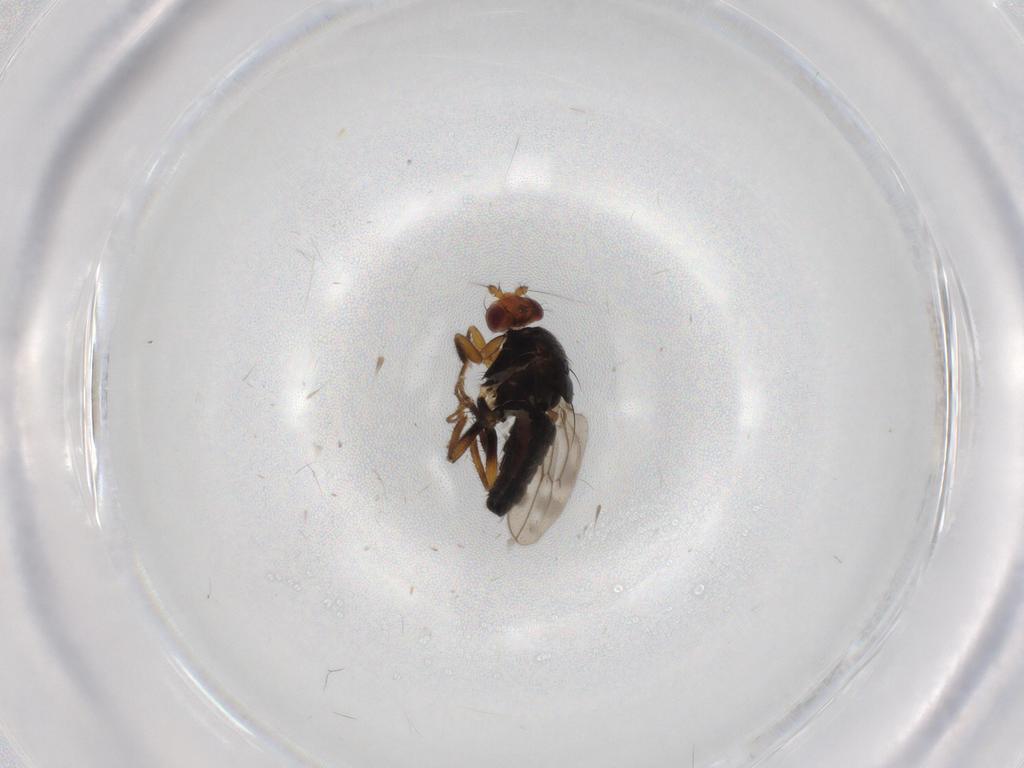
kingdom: Animalia
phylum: Arthropoda
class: Insecta
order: Diptera
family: Sphaeroceridae
